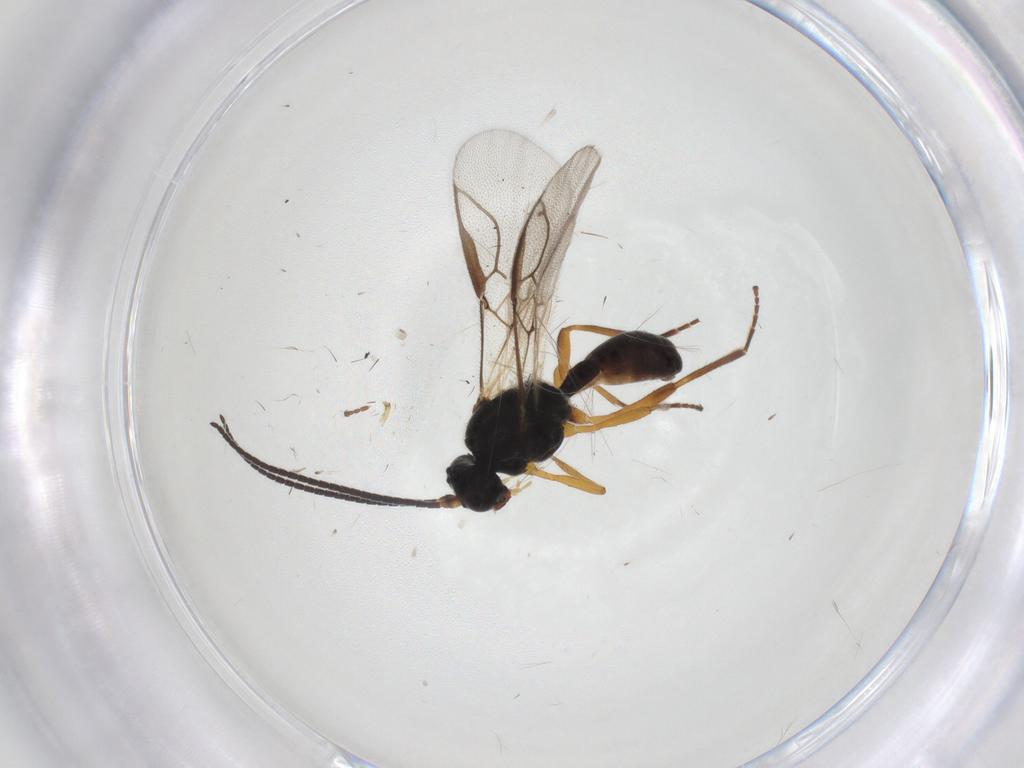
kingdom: Animalia
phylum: Arthropoda
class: Insecta
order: Hymenoptera
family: Braconidae
